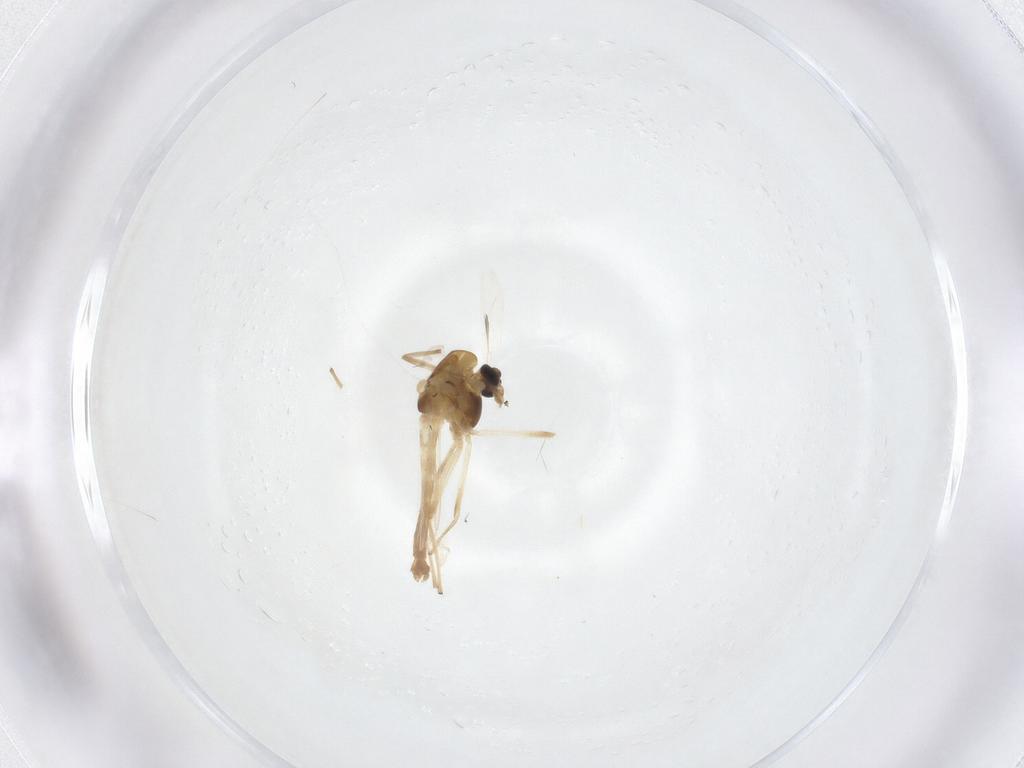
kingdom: Animalia
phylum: Arthropoda
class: Insecta
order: Diptera
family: Chironomidae
